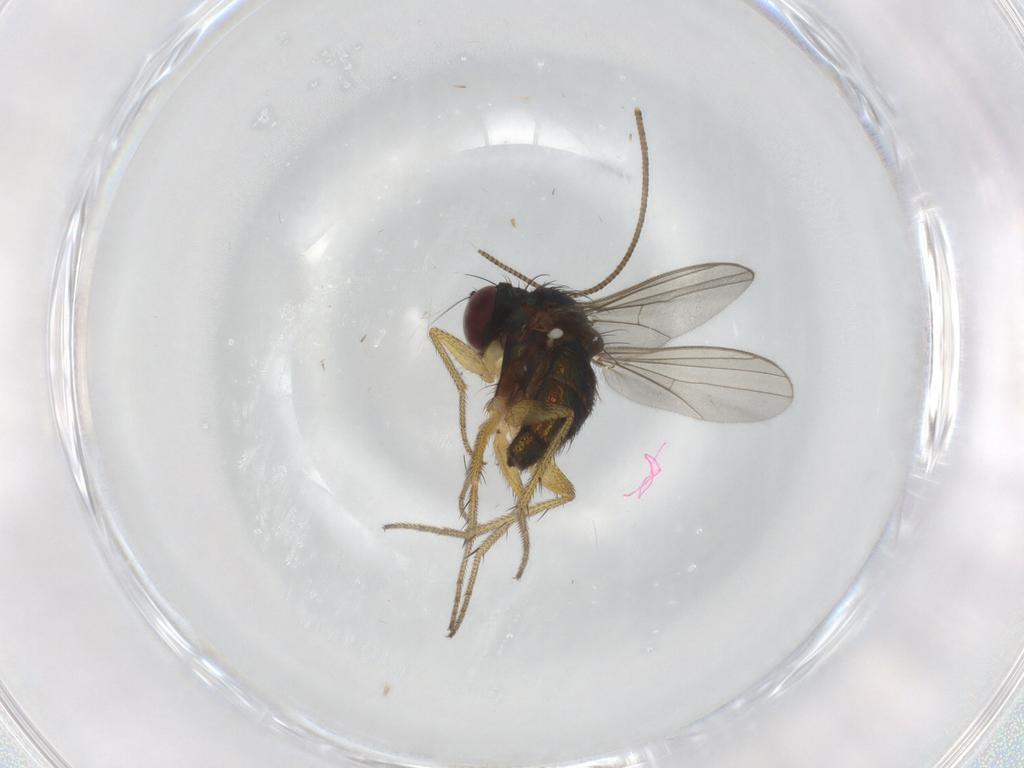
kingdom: Animalia
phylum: Arthropoda
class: Insecta
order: Diptera
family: Dolichopodidae
